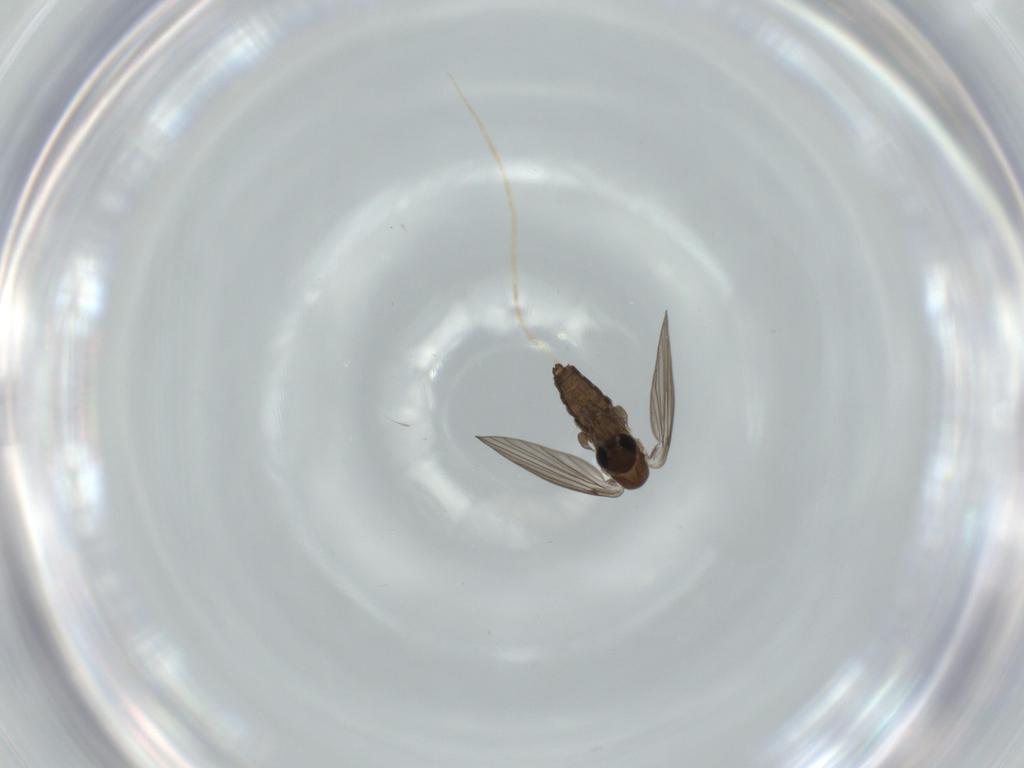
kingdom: Animalia
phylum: Arthropoda
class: Insecta
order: Diptera
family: Psychodidae
